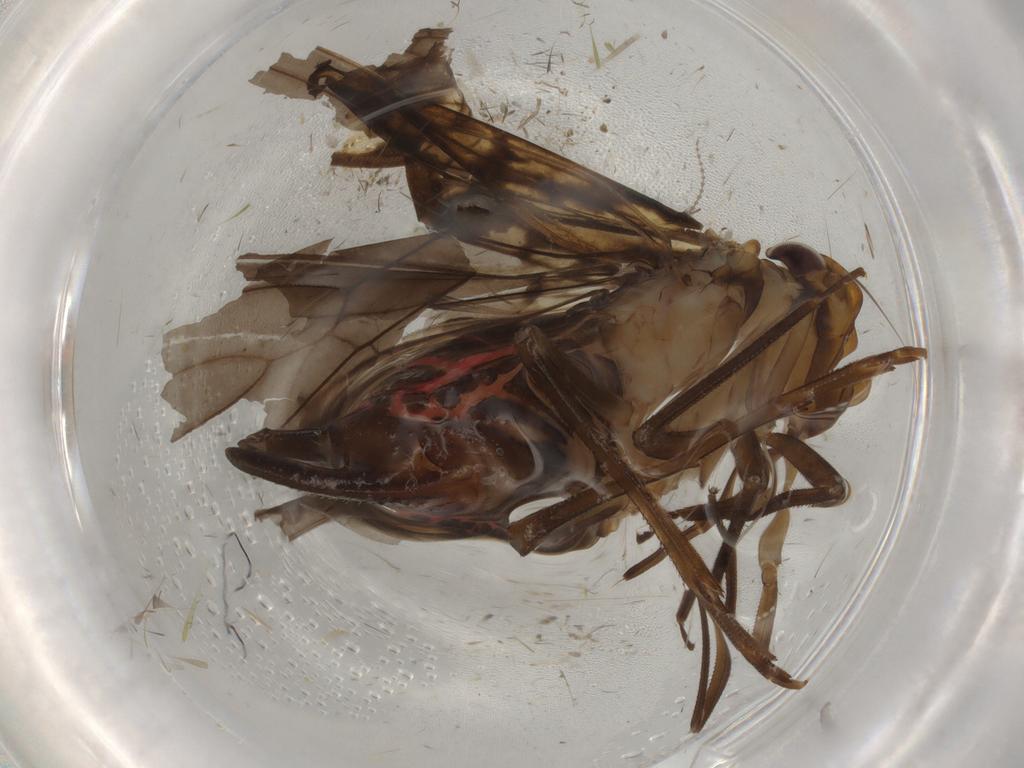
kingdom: Animalia
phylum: Arthropoda
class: Insecta
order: Hemiptera
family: Cixiidae
